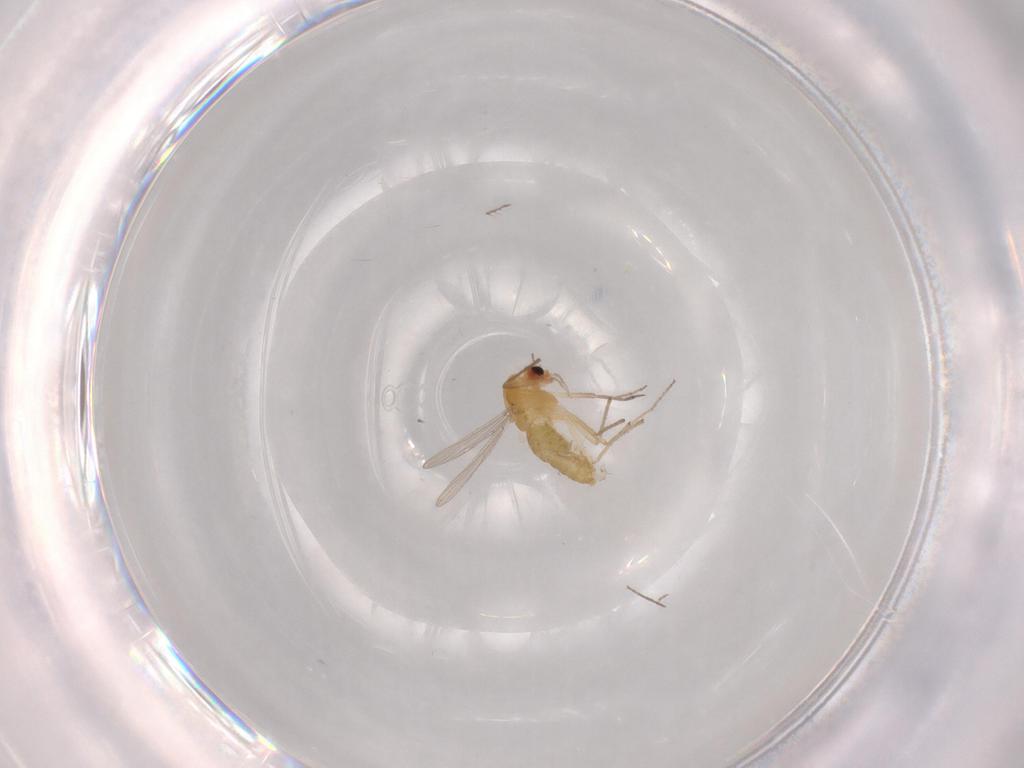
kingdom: Animalia
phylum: Arthropoda
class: Insecta
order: Diptera
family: Chironomidae
